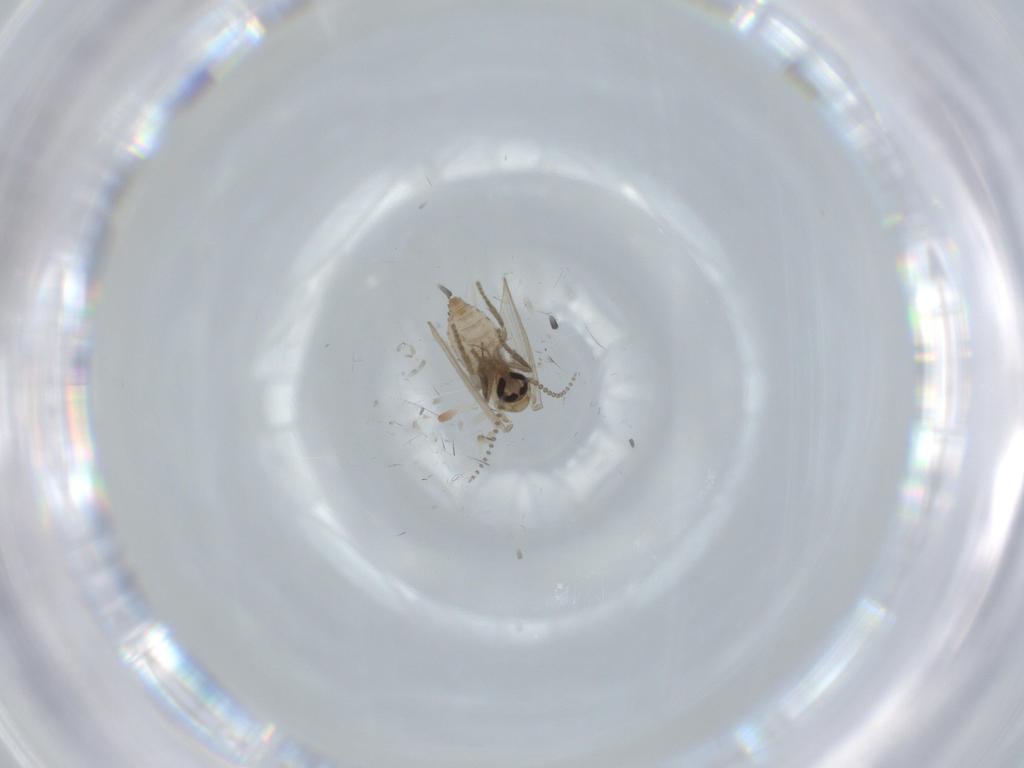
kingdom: Animalia
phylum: Arthropoda
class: Insecta
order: Diptera
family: Psychodidae
